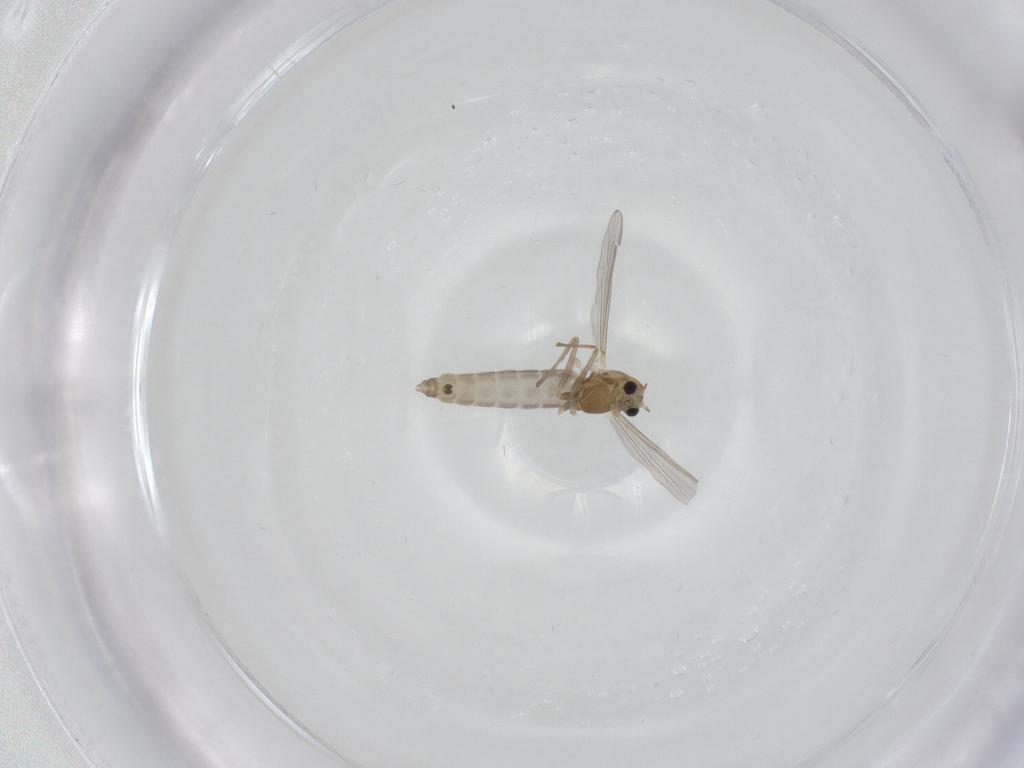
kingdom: Animalia
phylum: Arthropoda
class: Insecta
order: Diptera
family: Chironomidae
